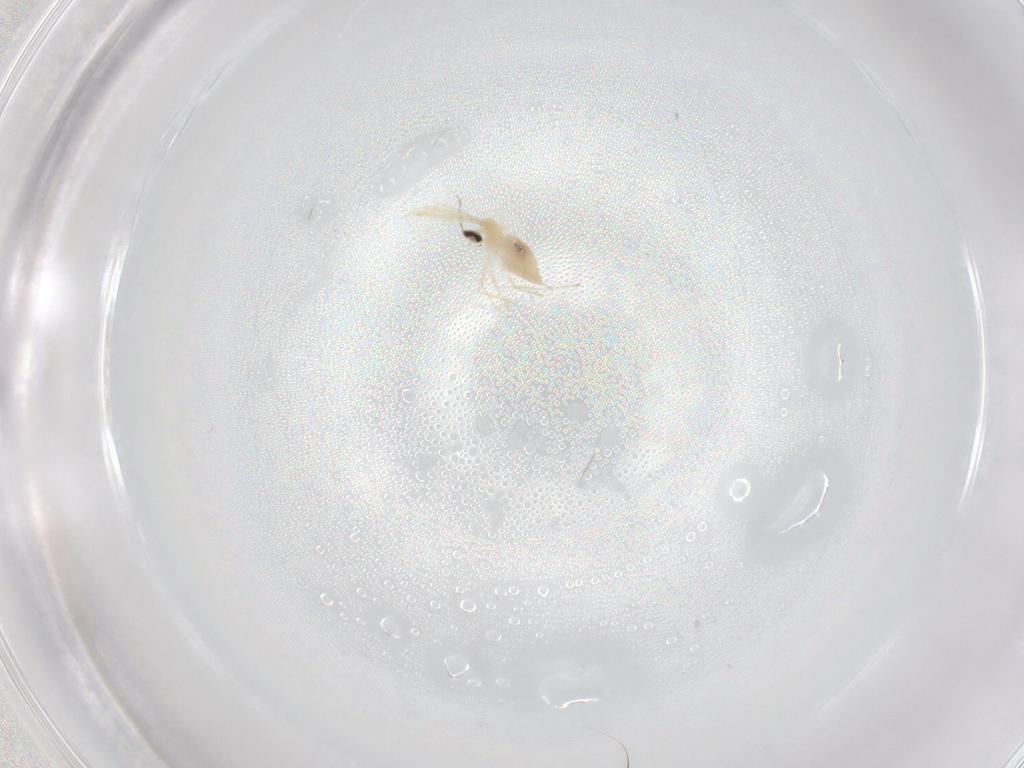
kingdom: Animalia
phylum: Arthropoda
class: Insecta
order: Diptera
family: Cecidomyiidae
